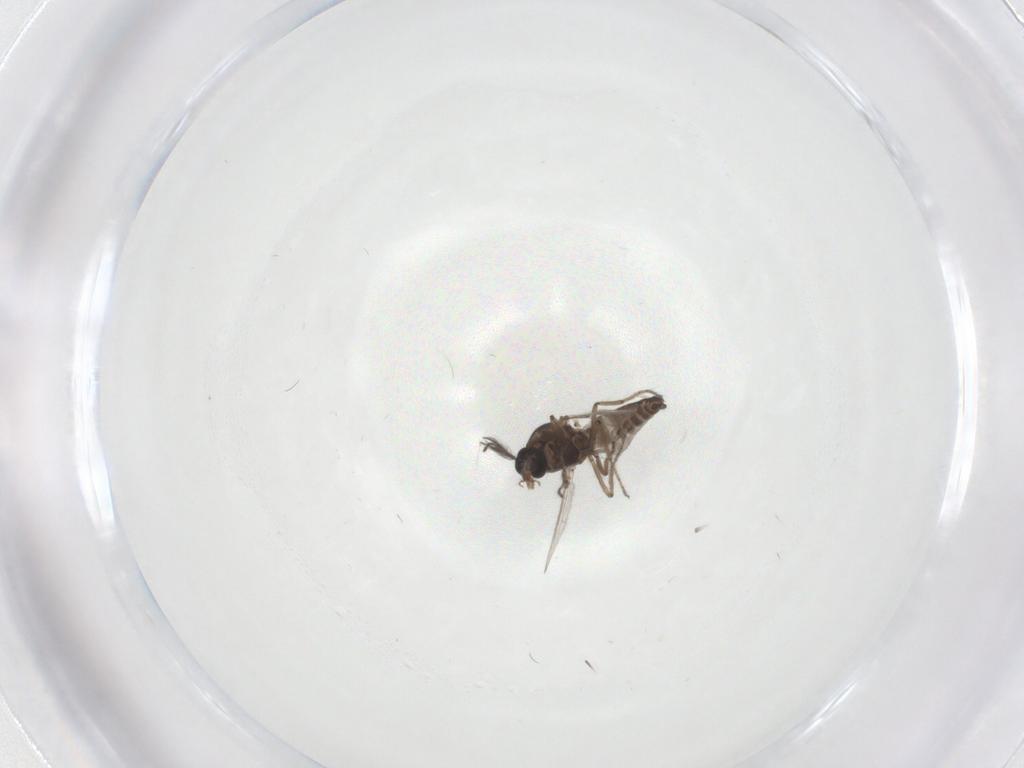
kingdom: Animalia
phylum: Arthropoda
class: Insecta
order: Diptera
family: Ceratopogonidae
